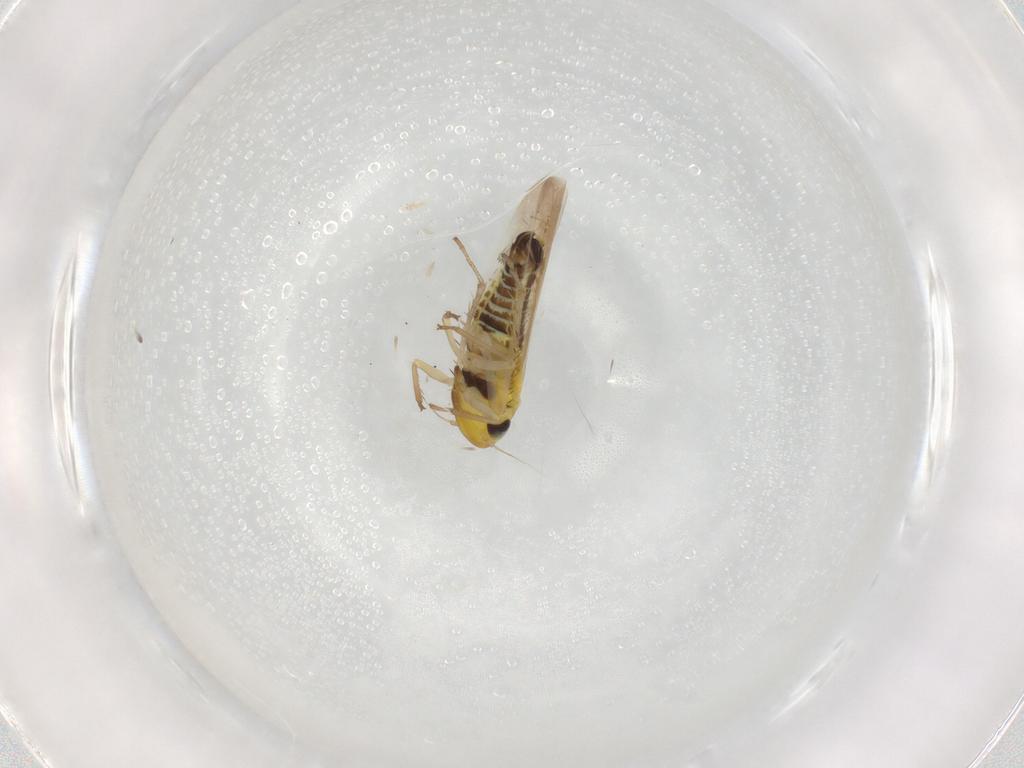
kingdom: Animalia
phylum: Arthropoda
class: Insecta
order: Hemiptera
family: Cicadellidae
